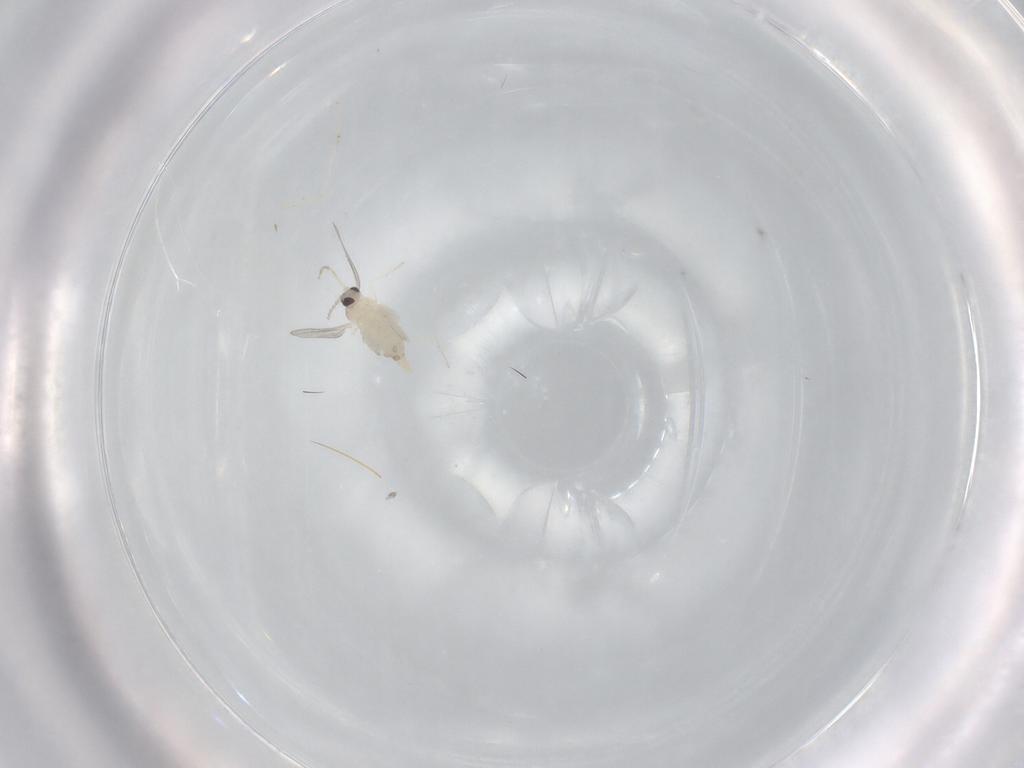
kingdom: Animalia
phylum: Arthropoda
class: Insecta
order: Diptera
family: Cecidomyiidae
